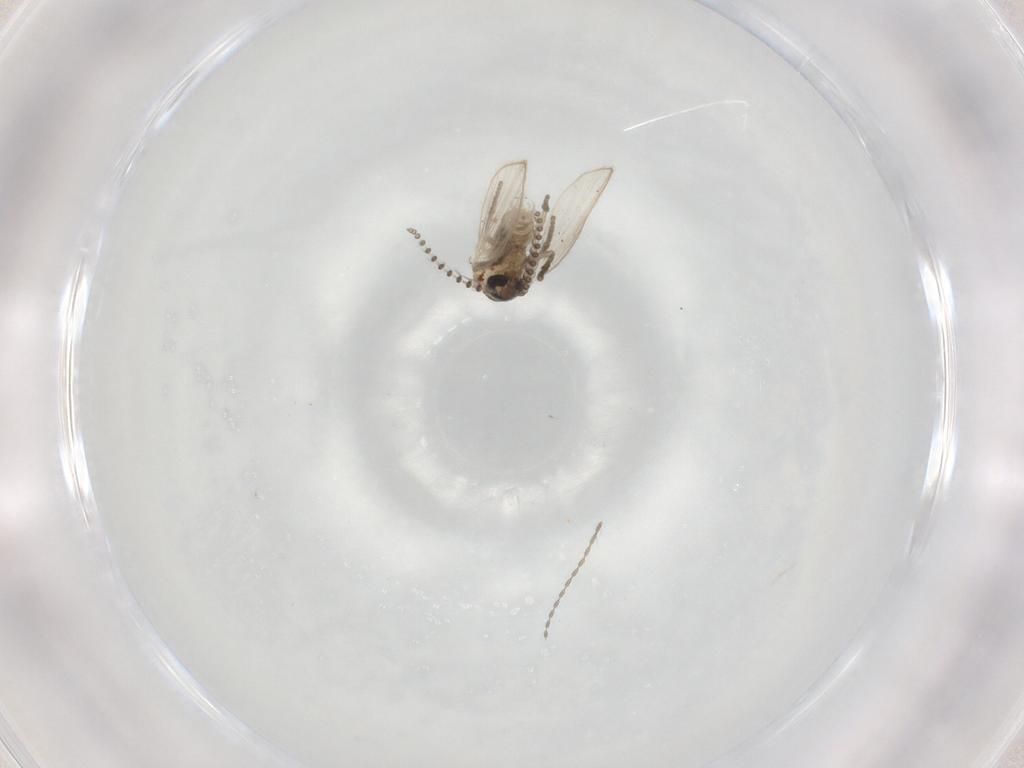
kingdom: Animalia
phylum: Arthropoda
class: Insecta
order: Diptera
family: Psychodidae
